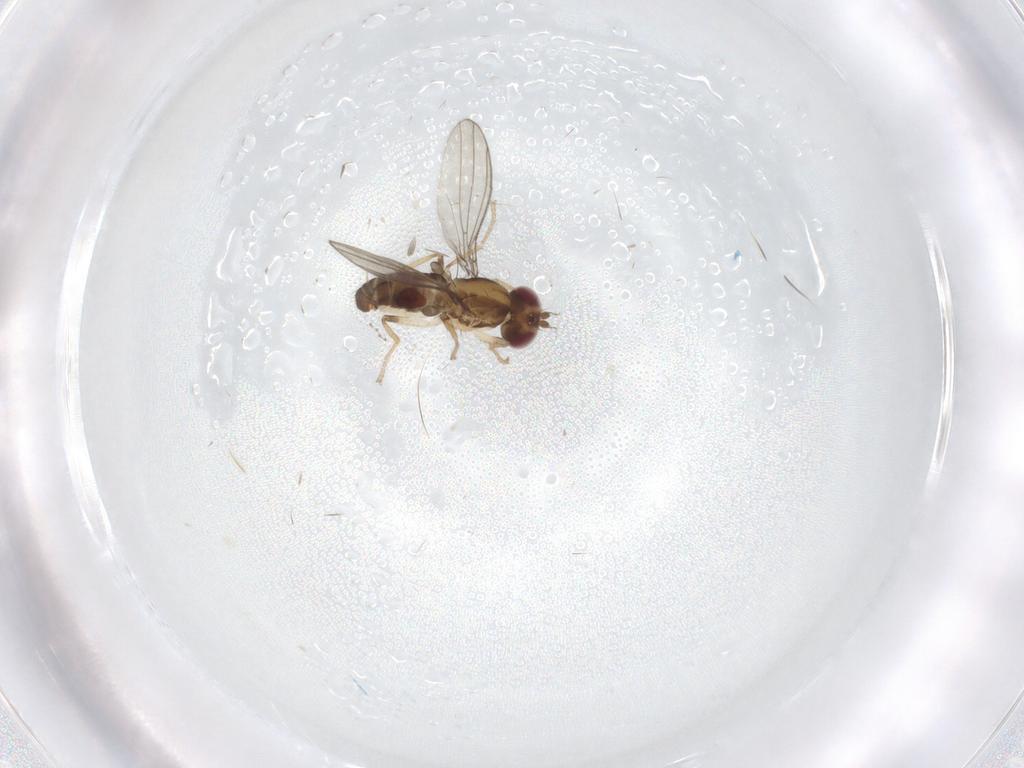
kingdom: Animalia
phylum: Arthropoda
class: Insecta
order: Diptera
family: Anthomyzidae
